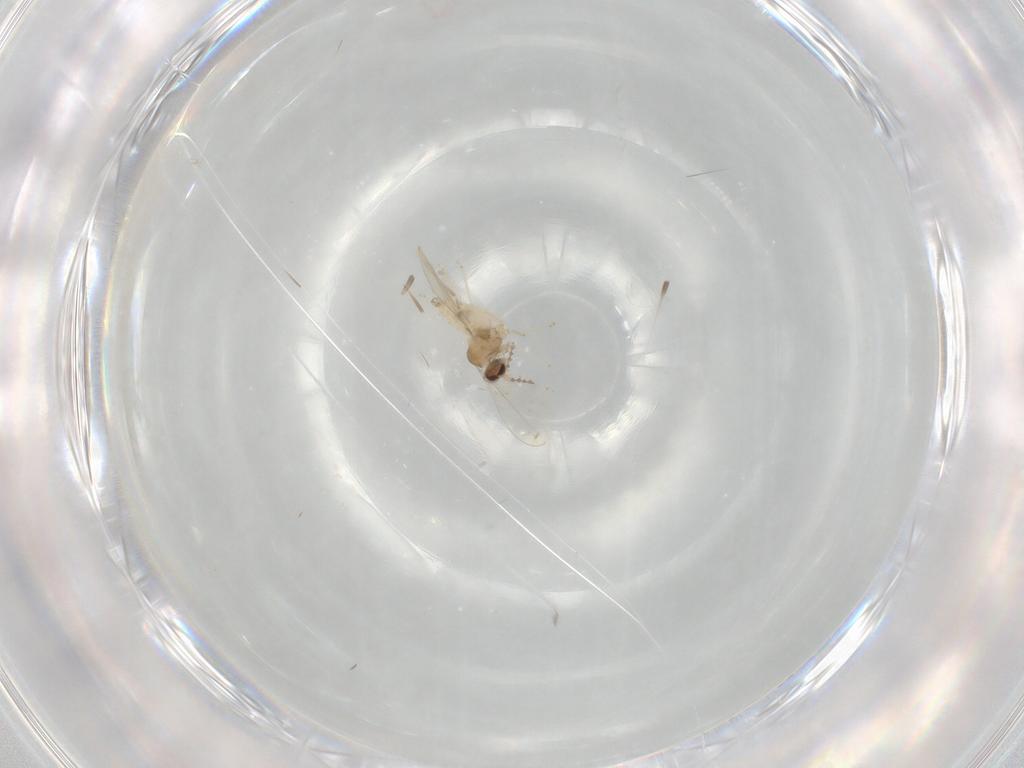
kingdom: Animalia
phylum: Arthropoda
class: Insecta
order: Diptera
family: Cecidomyiidae
